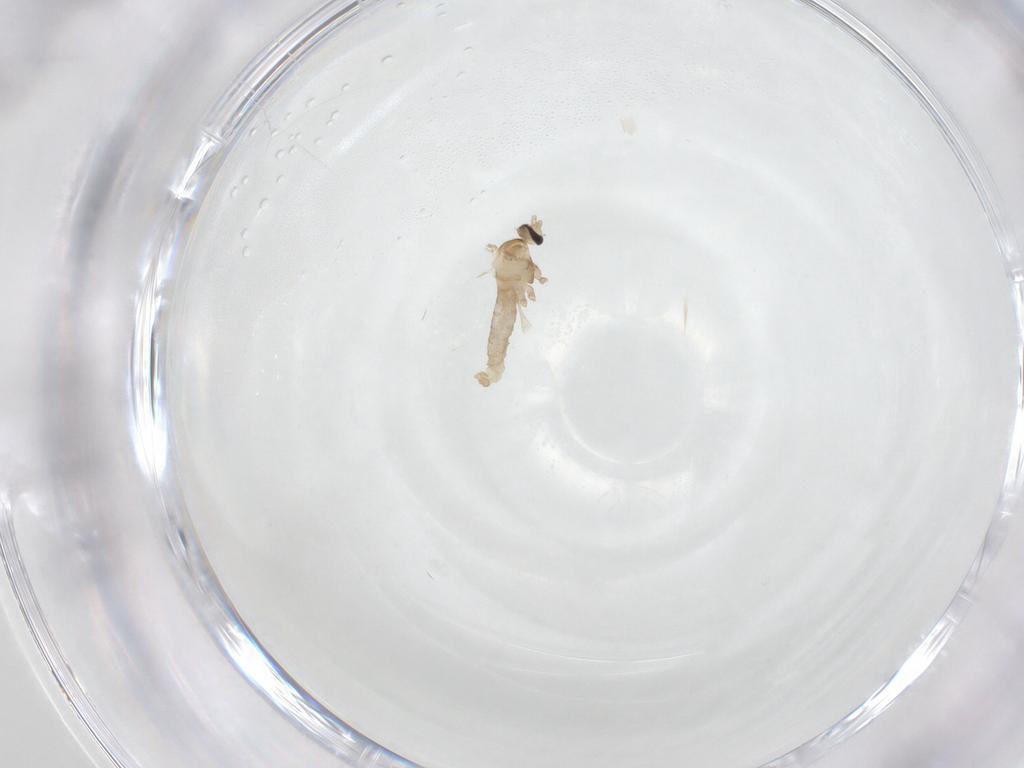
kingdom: Animalia
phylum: Arthropoda
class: Insecta
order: Diptera
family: Cecidomyiidae
